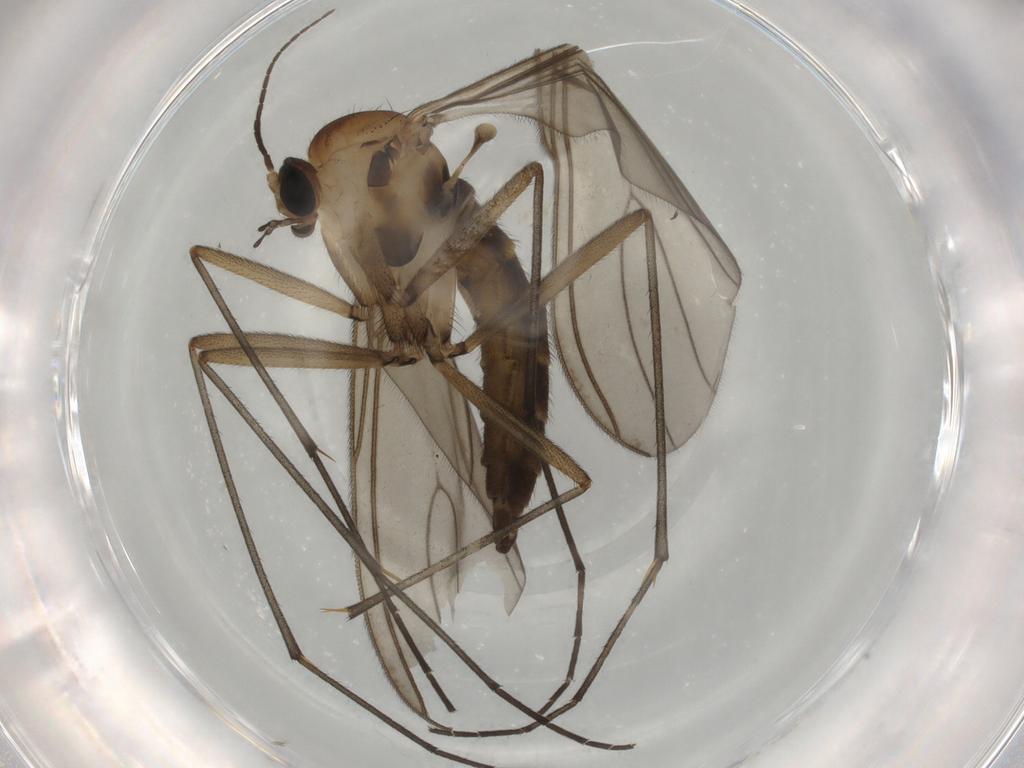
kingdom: Animalia
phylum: Arthropoda
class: Insecta
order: Diptera
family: Sciaridae
